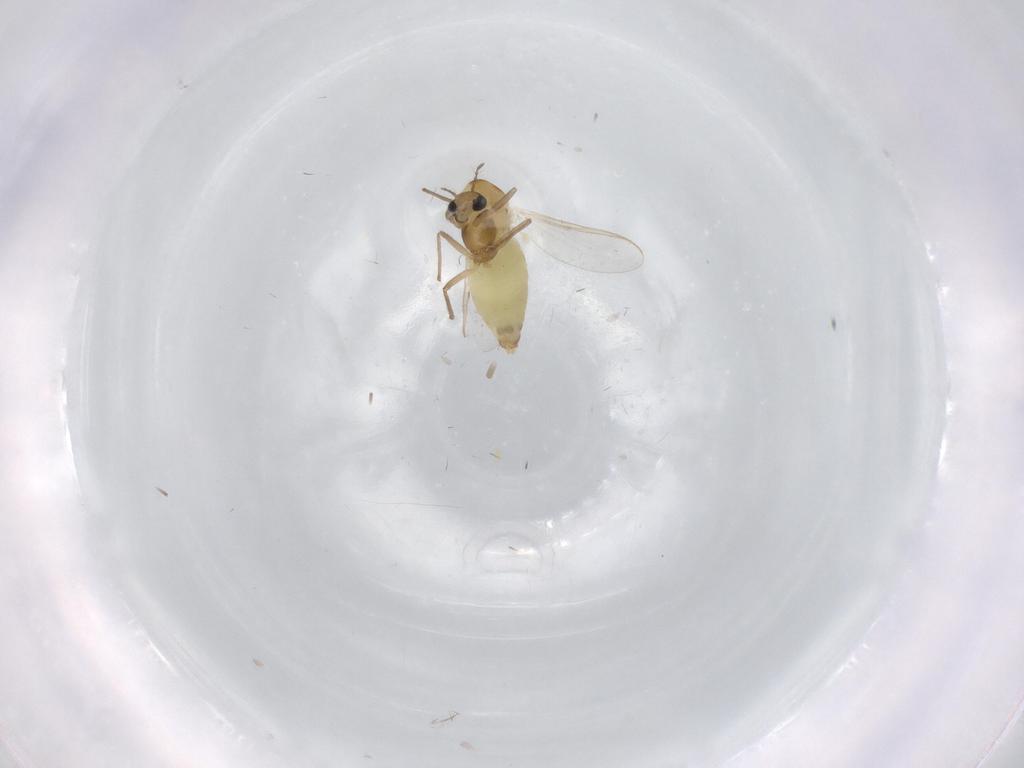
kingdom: Animalia
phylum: Arthropoda
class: Insecta
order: Diptera
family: Chironomidae
